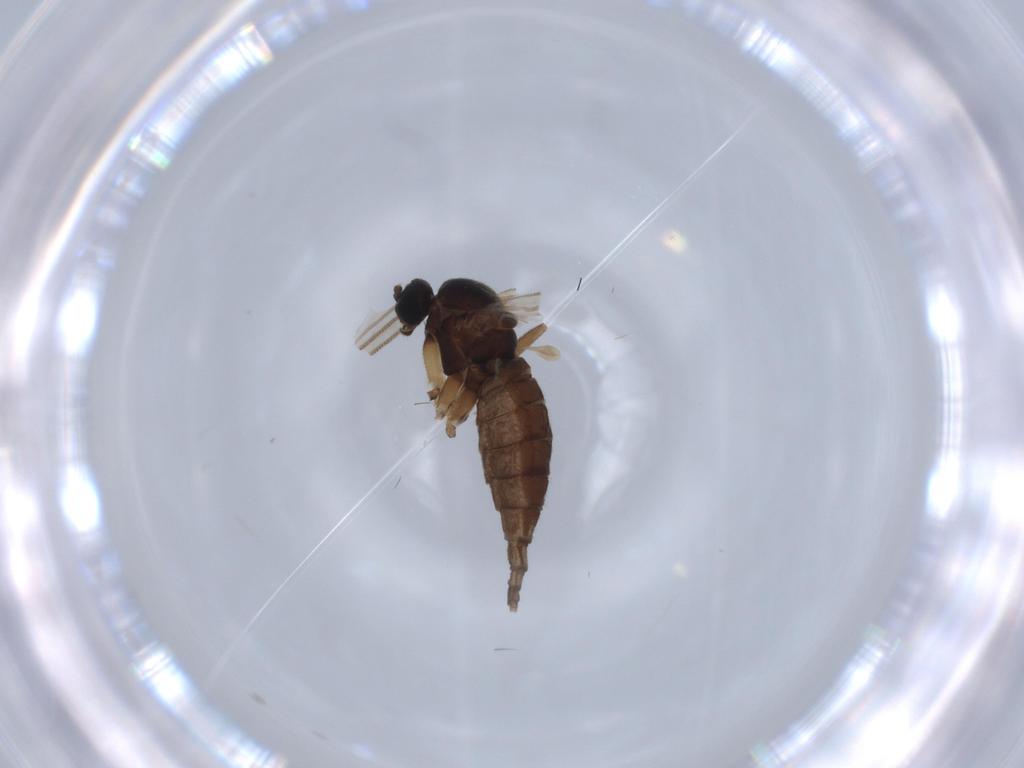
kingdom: Animalia
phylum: Arthropoda
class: Insecta
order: Diptera
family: Sciaridae
